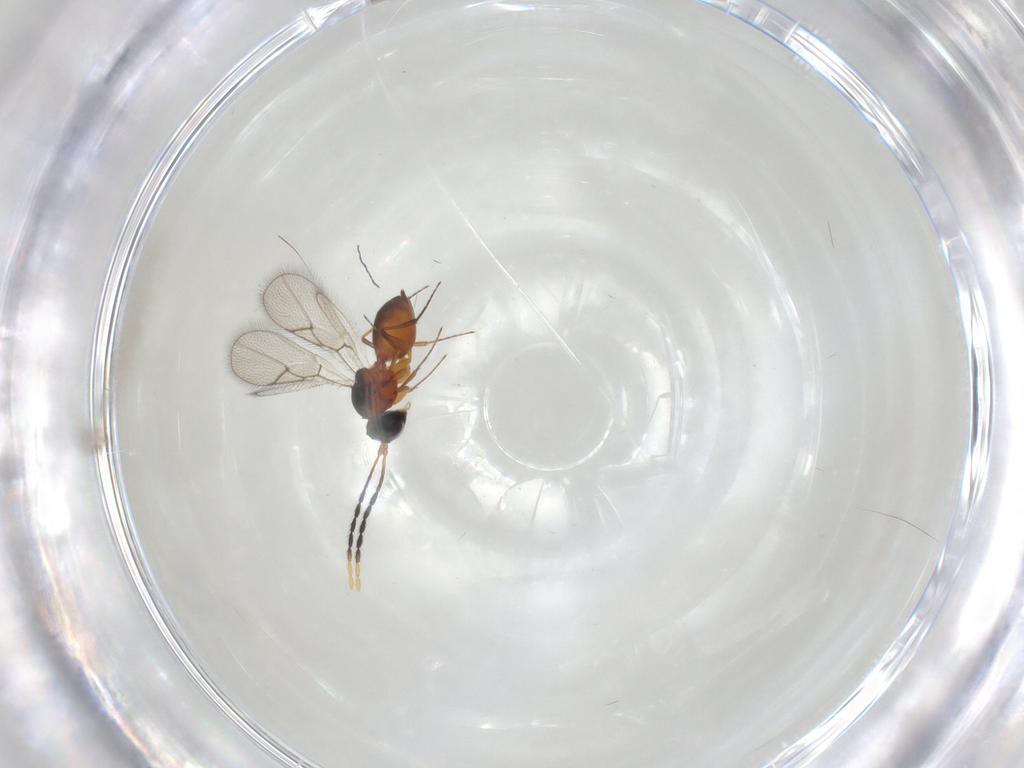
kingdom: Animalia
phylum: Arthropoda
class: Insecta
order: Hymenoptera
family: Figitidae
